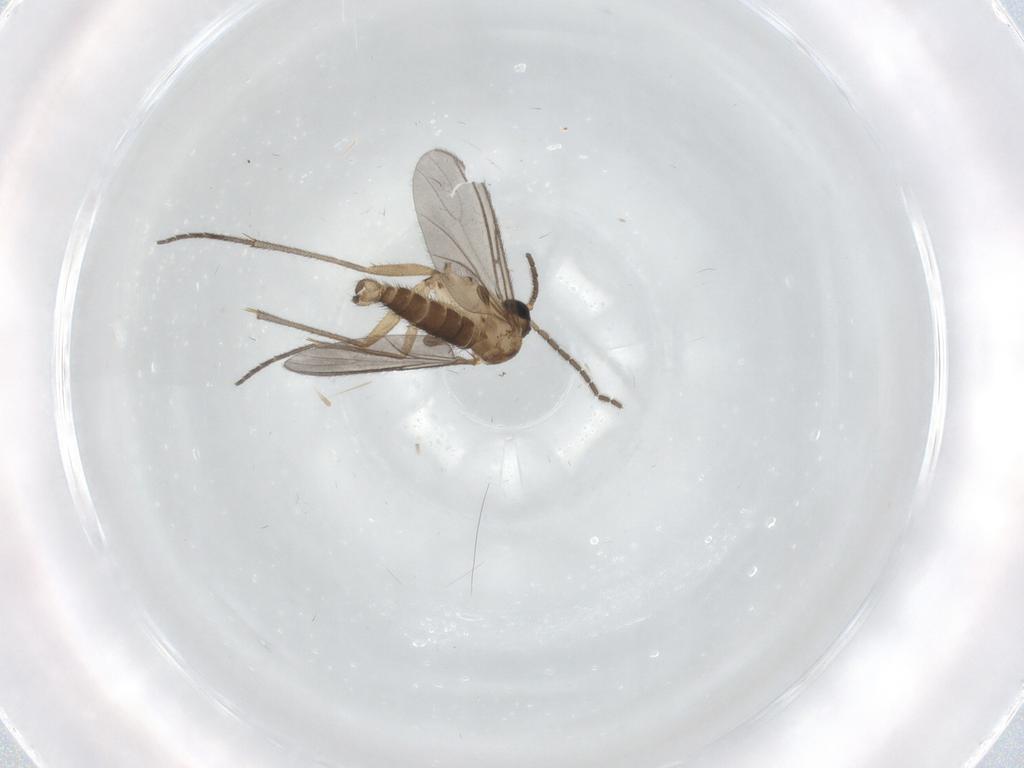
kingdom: Animalia
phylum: Arthropoda
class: Insecta
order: Diptera
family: Sciaridae
